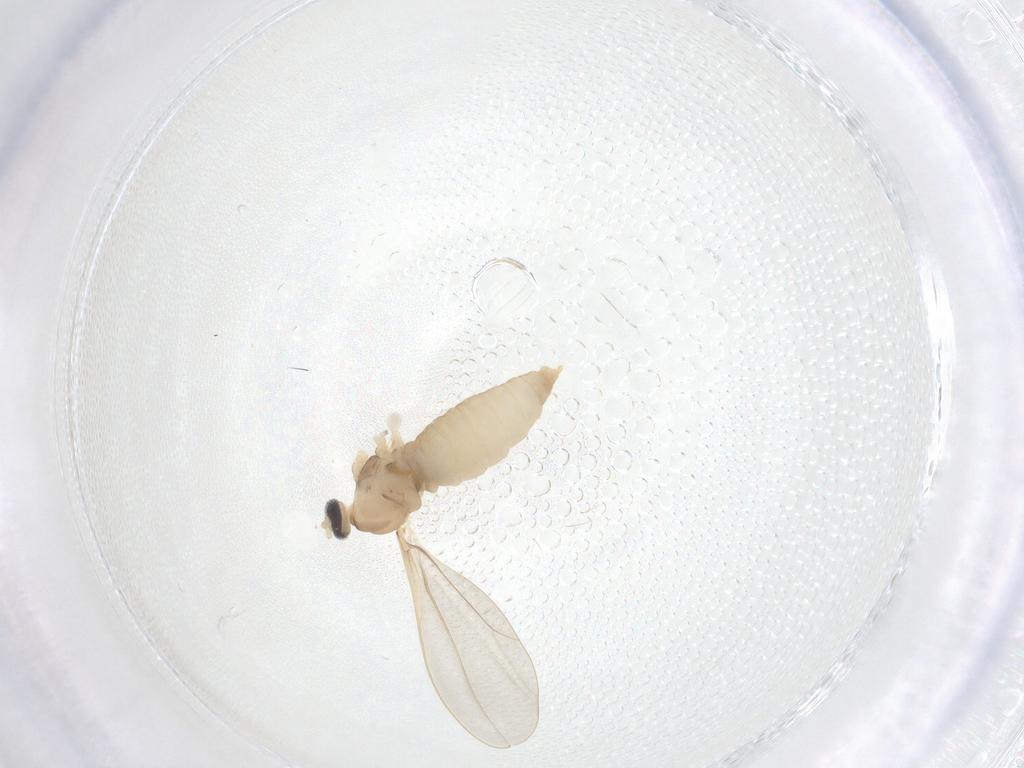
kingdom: Animalia
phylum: Arthropoda
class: Insecta
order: Diptera
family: Cecidomyiidae
